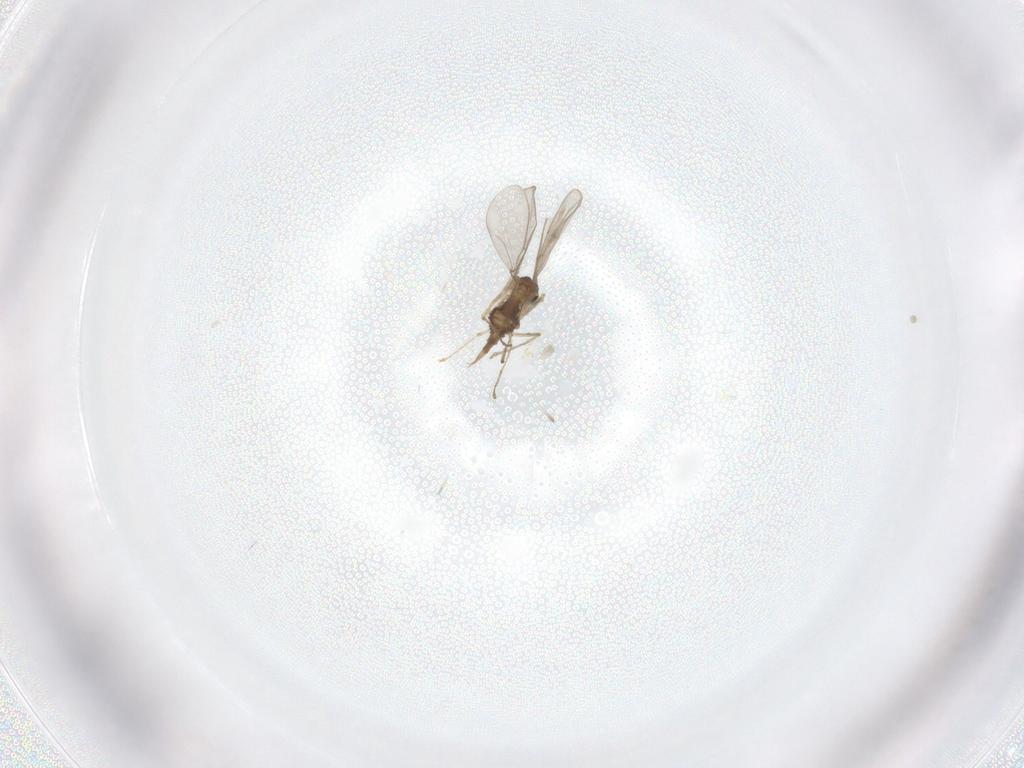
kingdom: Animalia
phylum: Arthropoda
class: Insecta
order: Diptera
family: Cecidomyiidae
